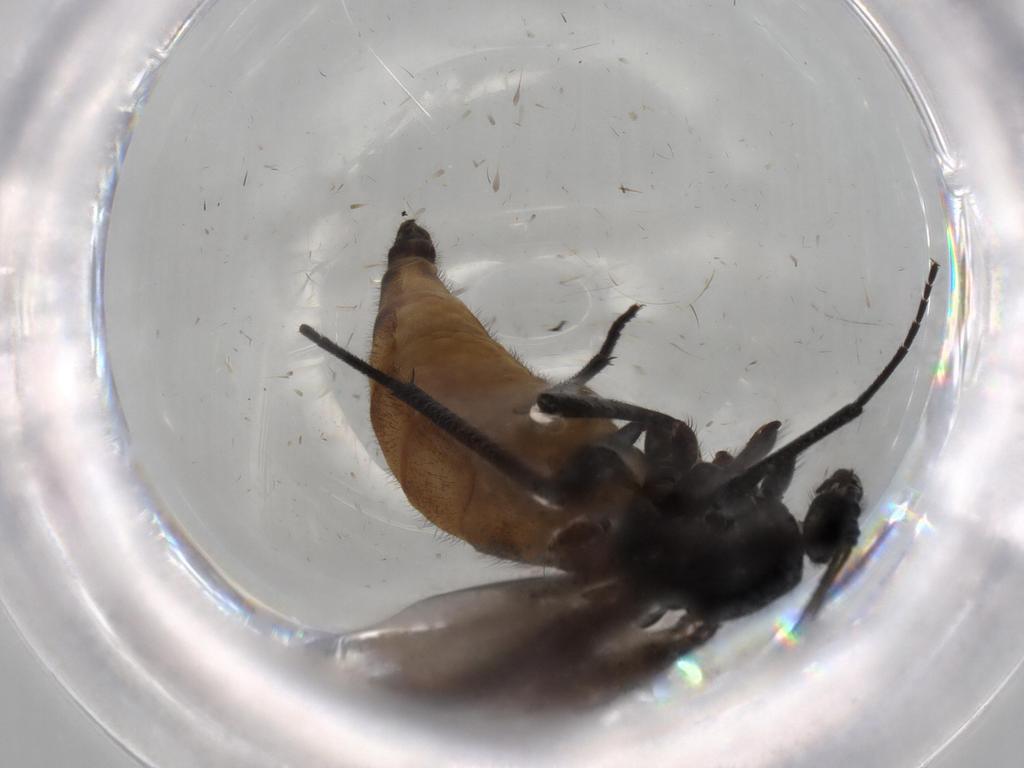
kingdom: Animalia
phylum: Arthropoda
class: Insecta
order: Diptera
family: Milichiidae
